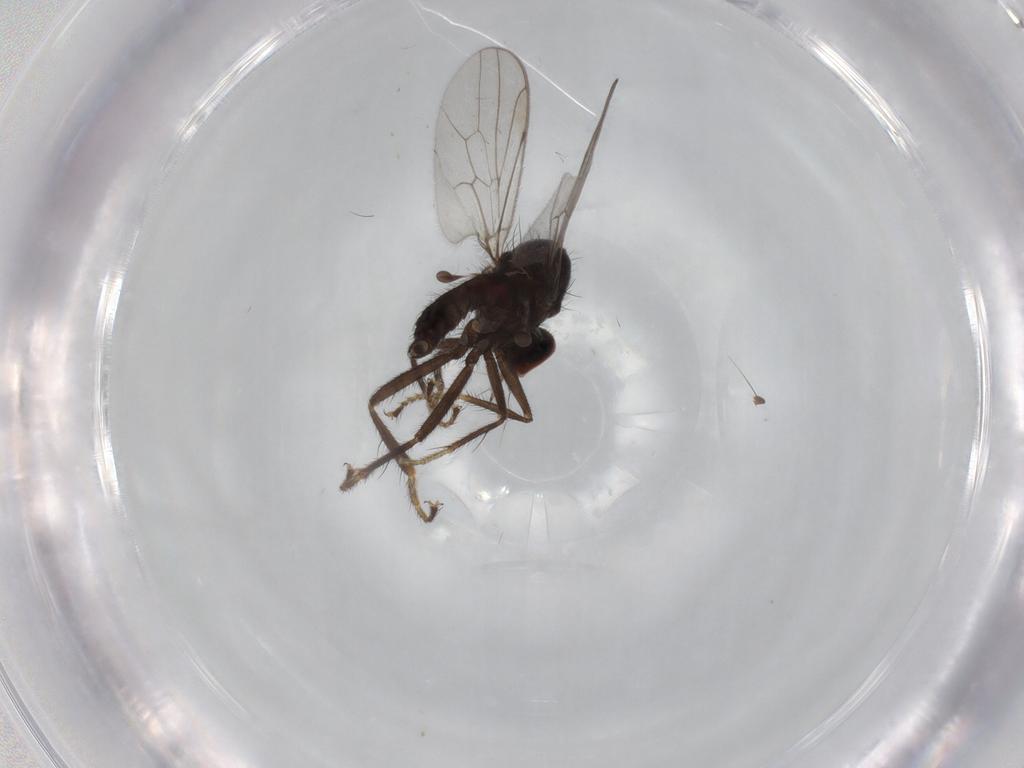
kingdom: Animalia
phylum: Arthropoda
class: Insecta
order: Diptera
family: Hybotidae
